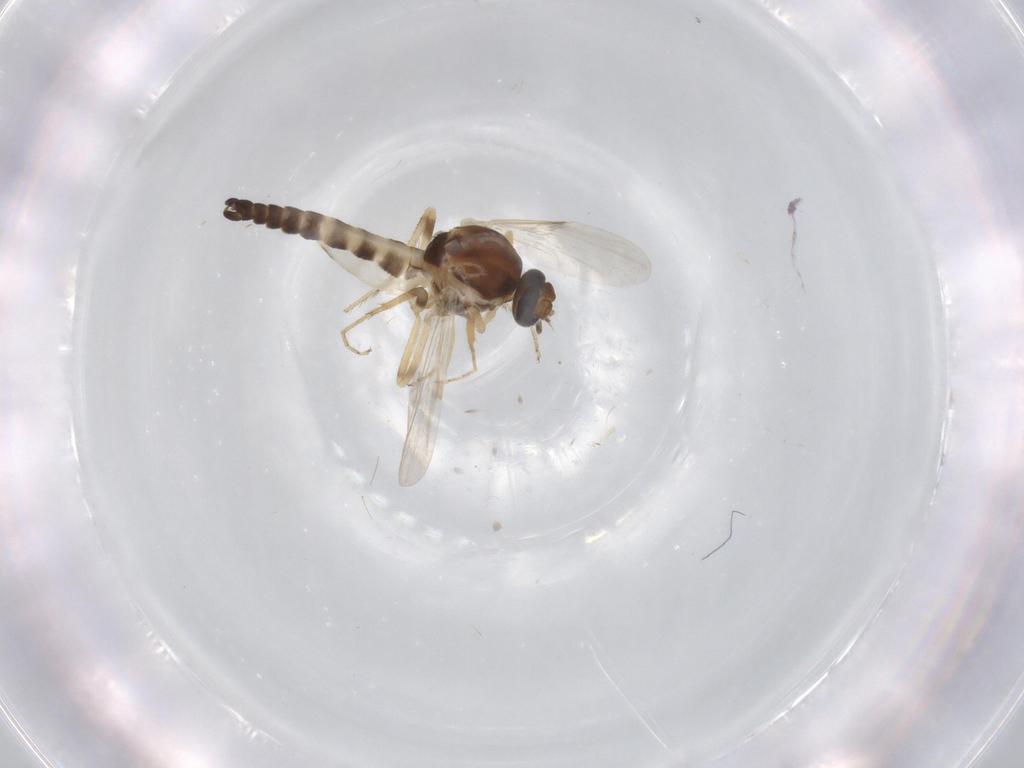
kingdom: Animalia
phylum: Arthropoda
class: Insecta
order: Diptera
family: Ceratopogonidae
